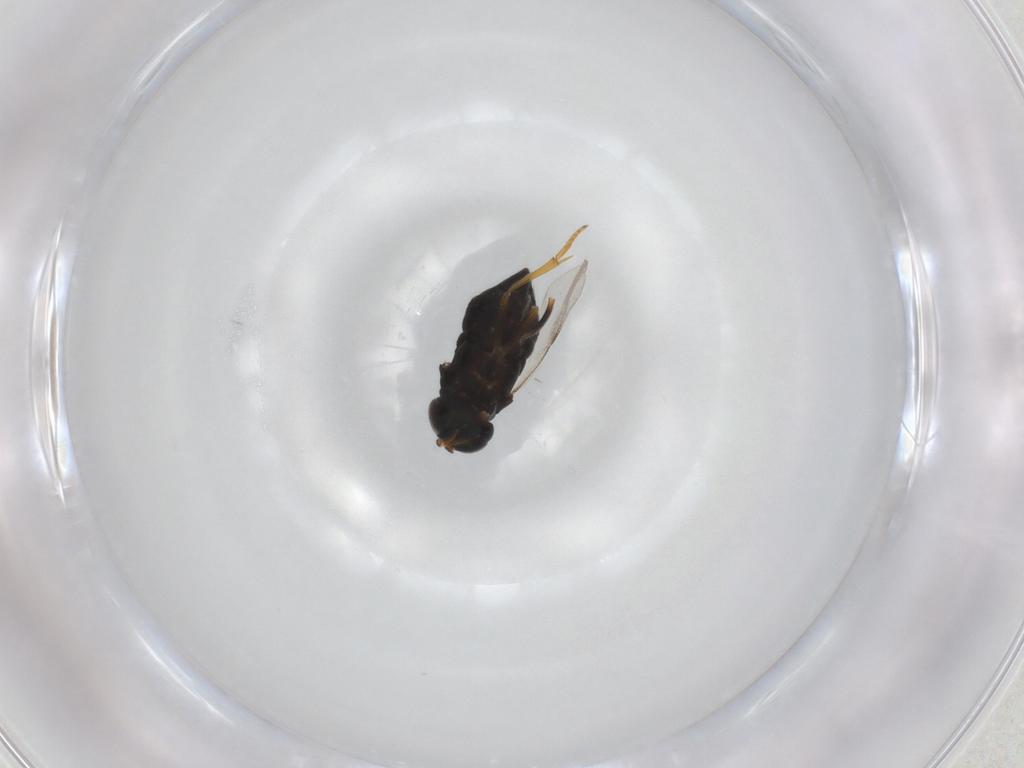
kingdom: Animalia
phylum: Arthropoda
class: Insecta
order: Hymenoptera
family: Encyrtidae
